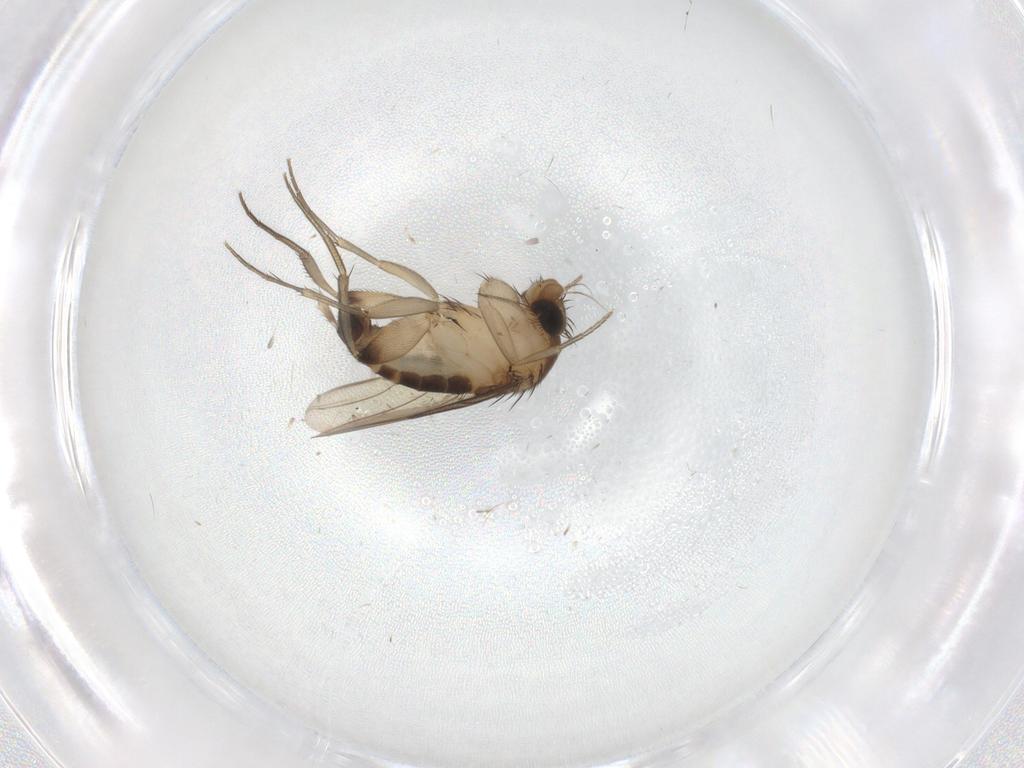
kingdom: Animalia
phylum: Arthropoda
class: Insecta
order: Diptera
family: Phoridae
